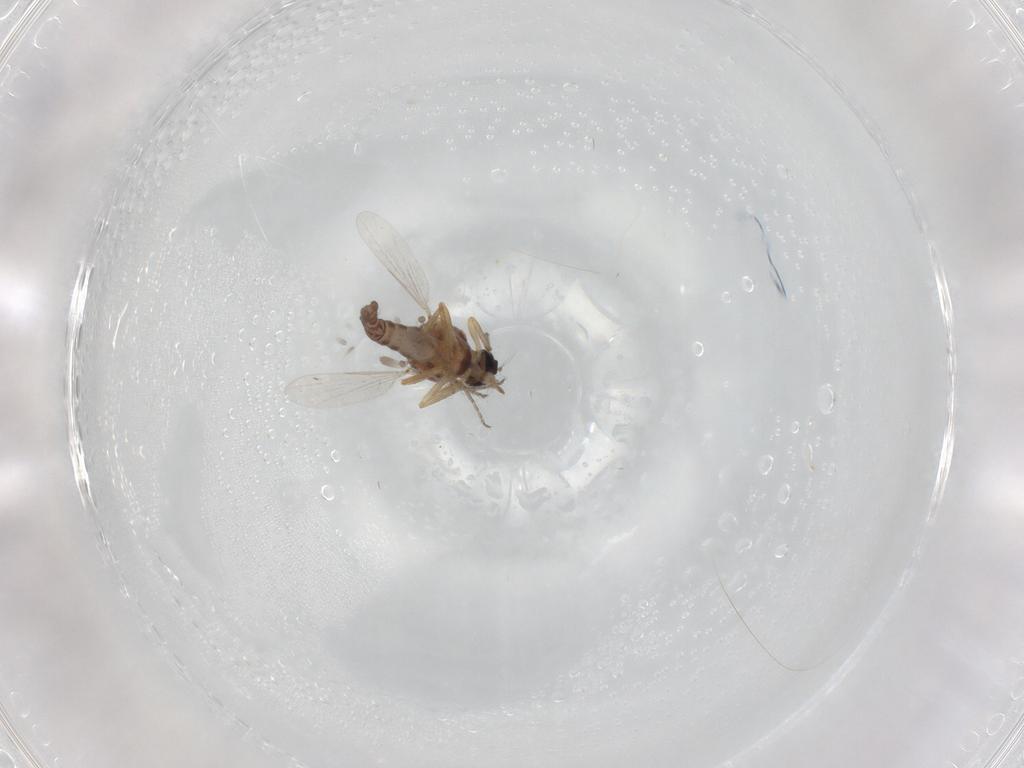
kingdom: Animalia
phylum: Arthropoda
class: Insecta
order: Diptera
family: Ceratopogonidae
